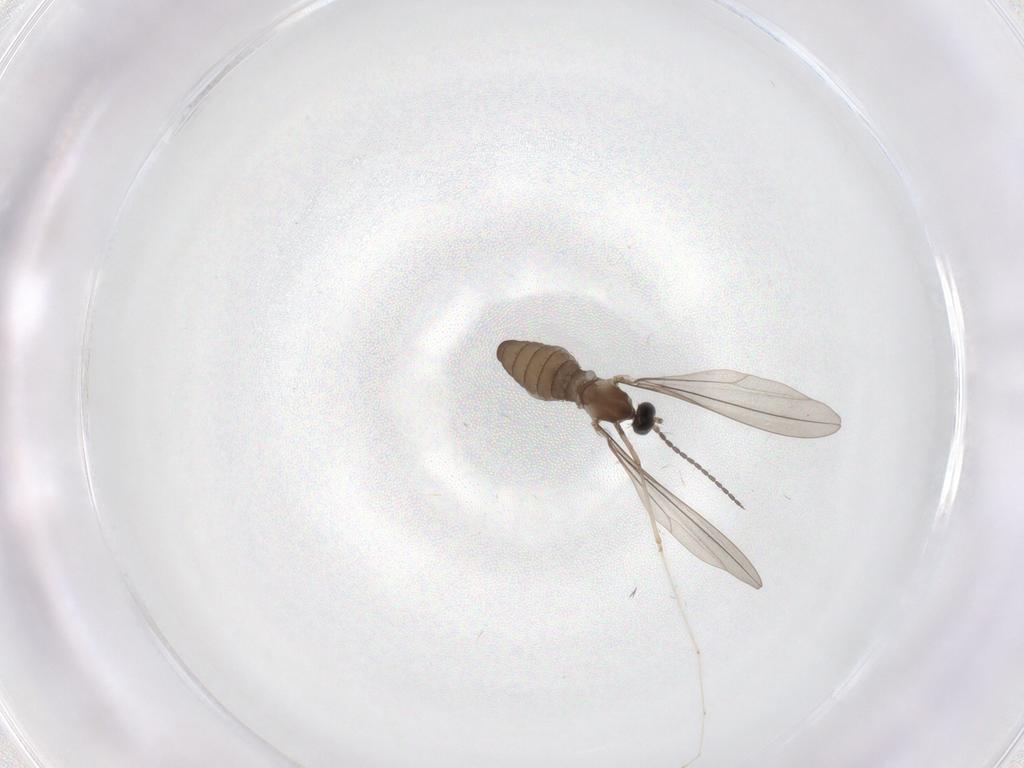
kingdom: Animalia
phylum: Arthropoda
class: Insecta
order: Diptera
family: Cecidomyiidae
